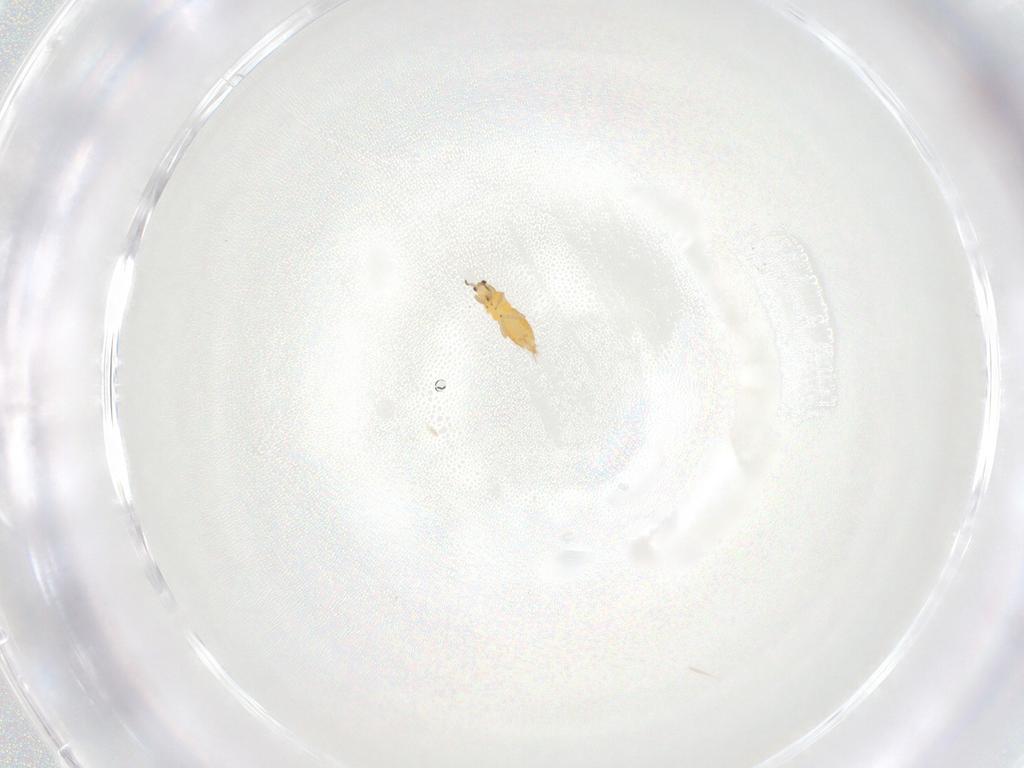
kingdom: Animalia
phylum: Arthropoda
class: Insecta
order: Thysanoptera
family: Thripidae
